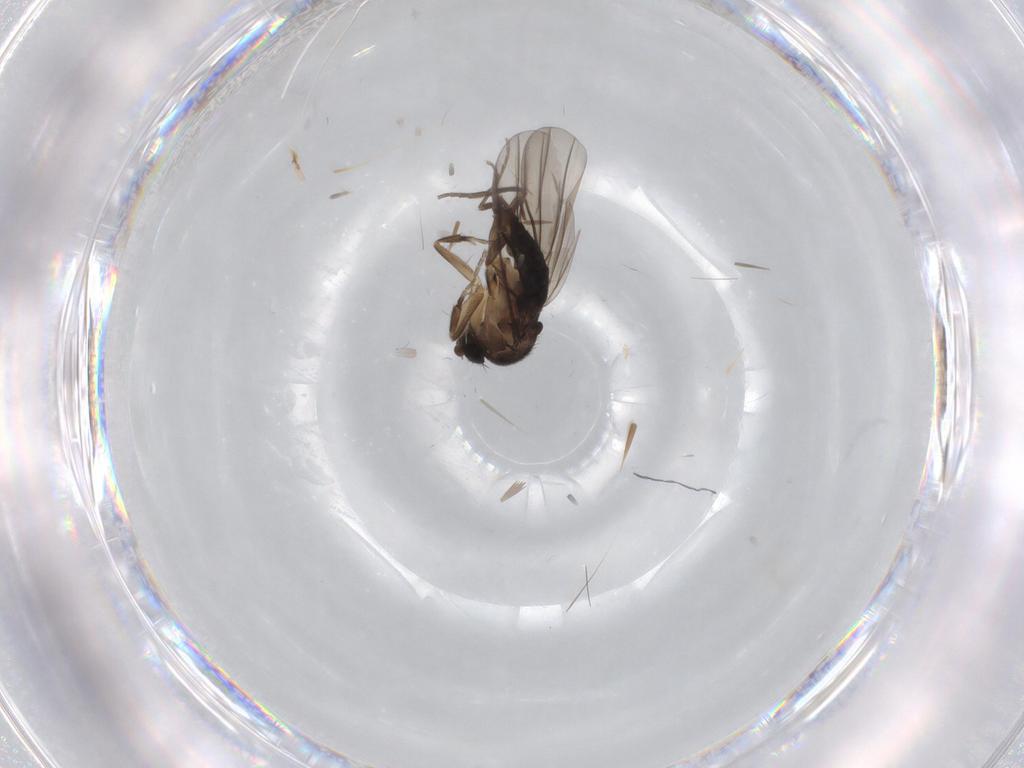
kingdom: Animalia
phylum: Arthropoda
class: Insecta
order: Diptera
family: Phoridae
